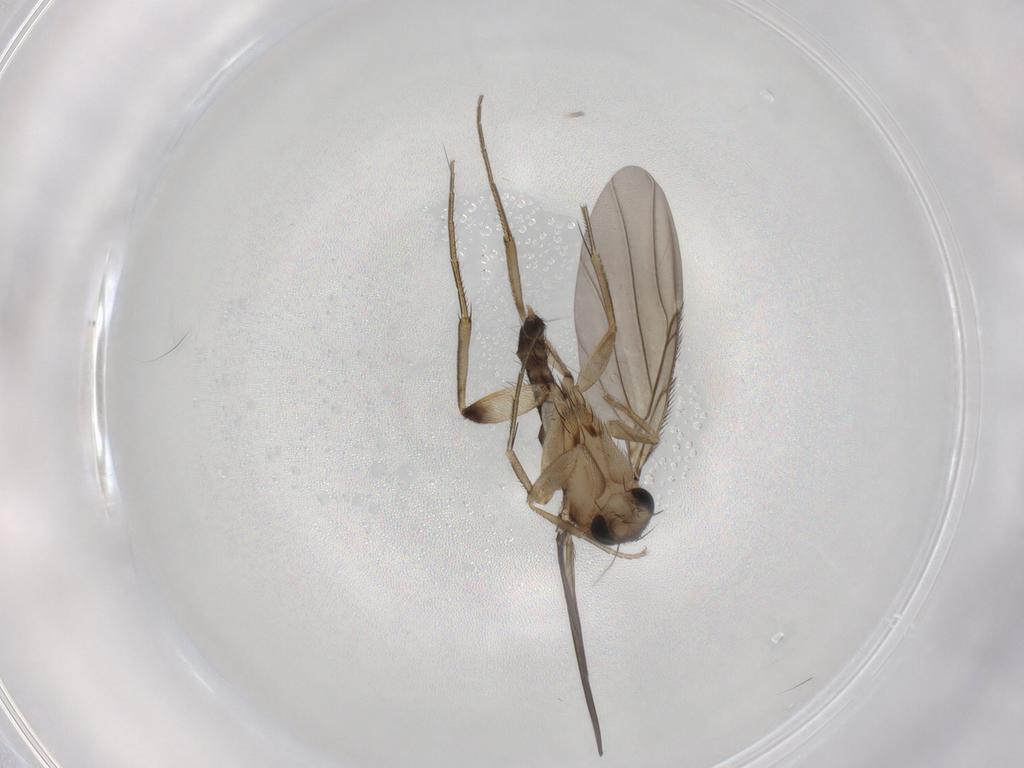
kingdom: Animalia
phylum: Arthropoda
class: Insecta
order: Diptera
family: Phoridae
